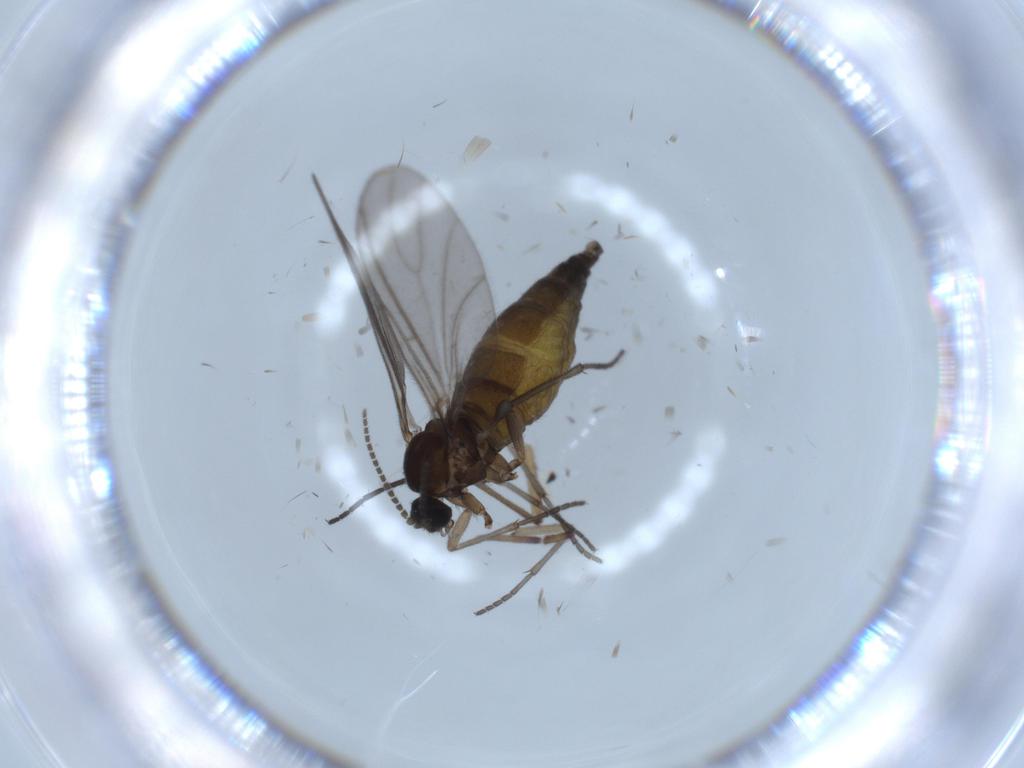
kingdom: Animalia
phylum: Arthropoda
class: Insecta
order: Diptera
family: Sciaridae
